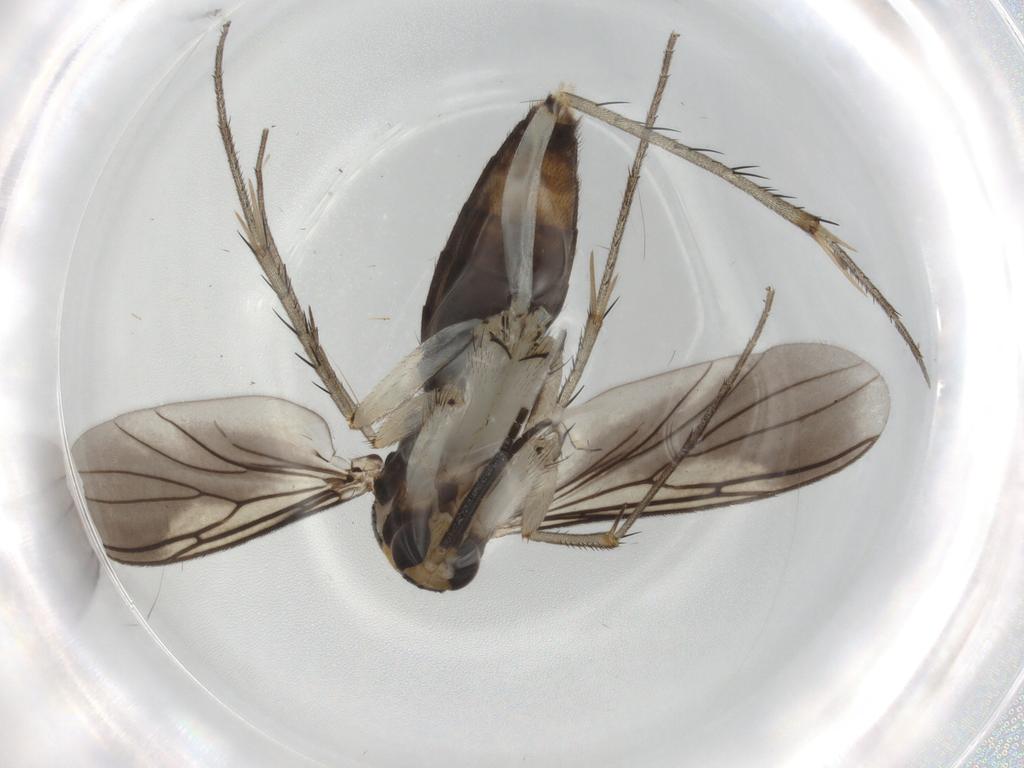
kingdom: Animalia
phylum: Arthropoda
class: Insecta
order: Diptera
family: Mycetophilidae
